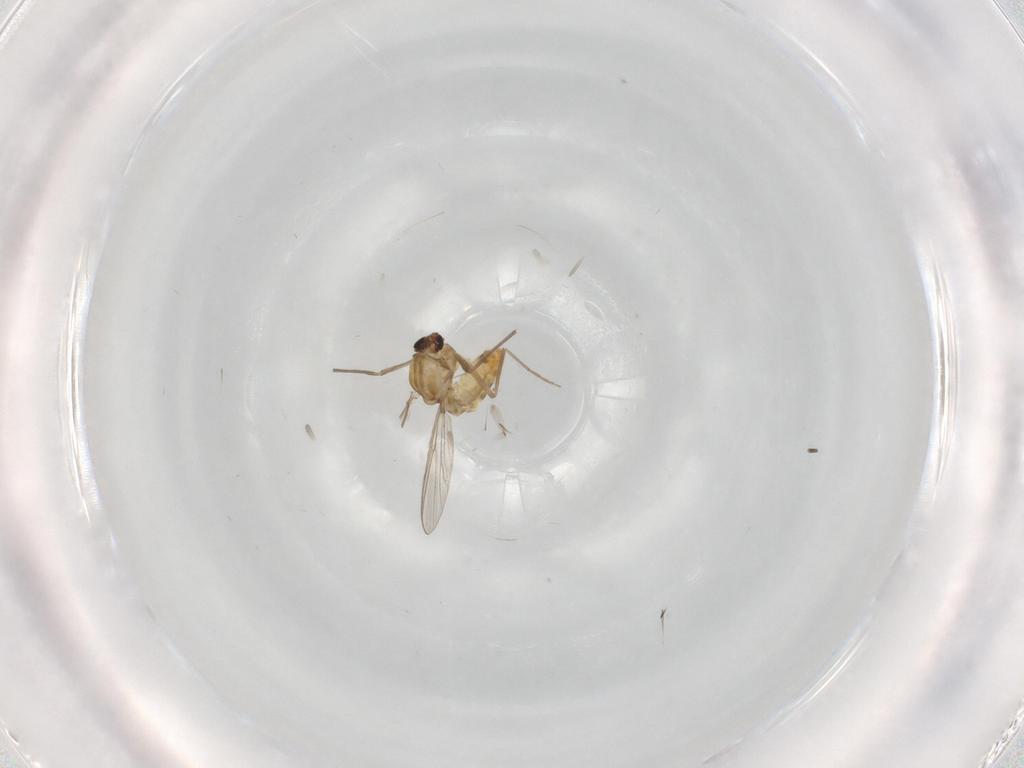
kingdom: Animalia
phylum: Arthropoda
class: Insecta
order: Diptera
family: Chironomidae
